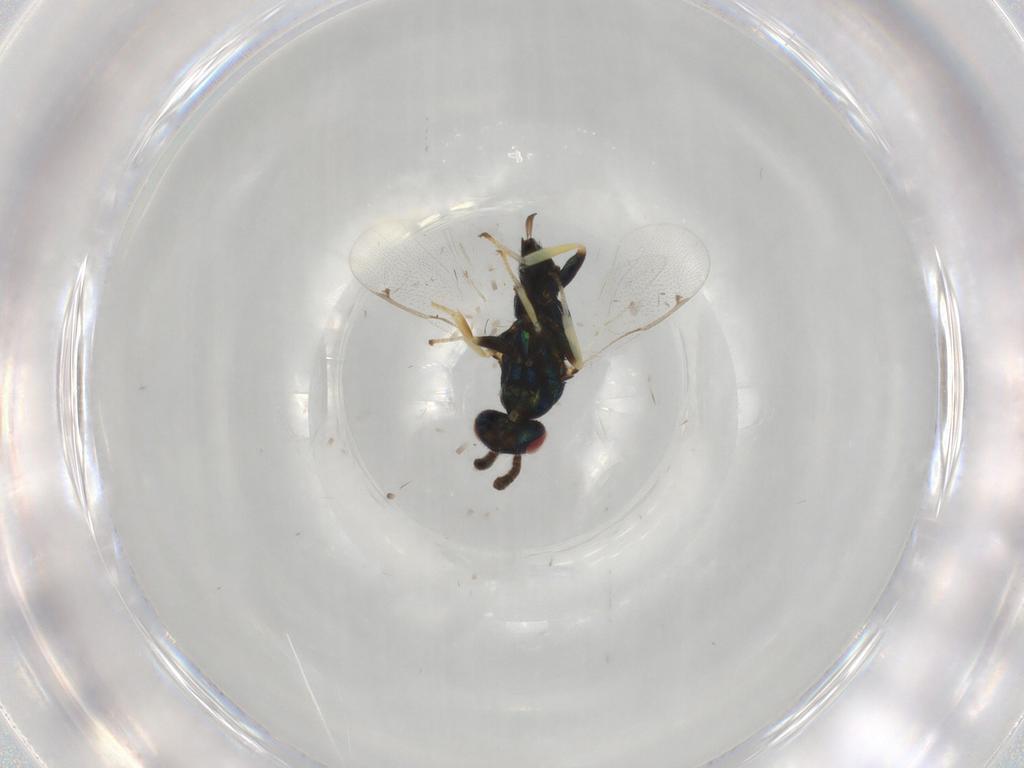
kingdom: Animalia
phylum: Arthropoda
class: Insecta
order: Hymenoptera
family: Torymidae
